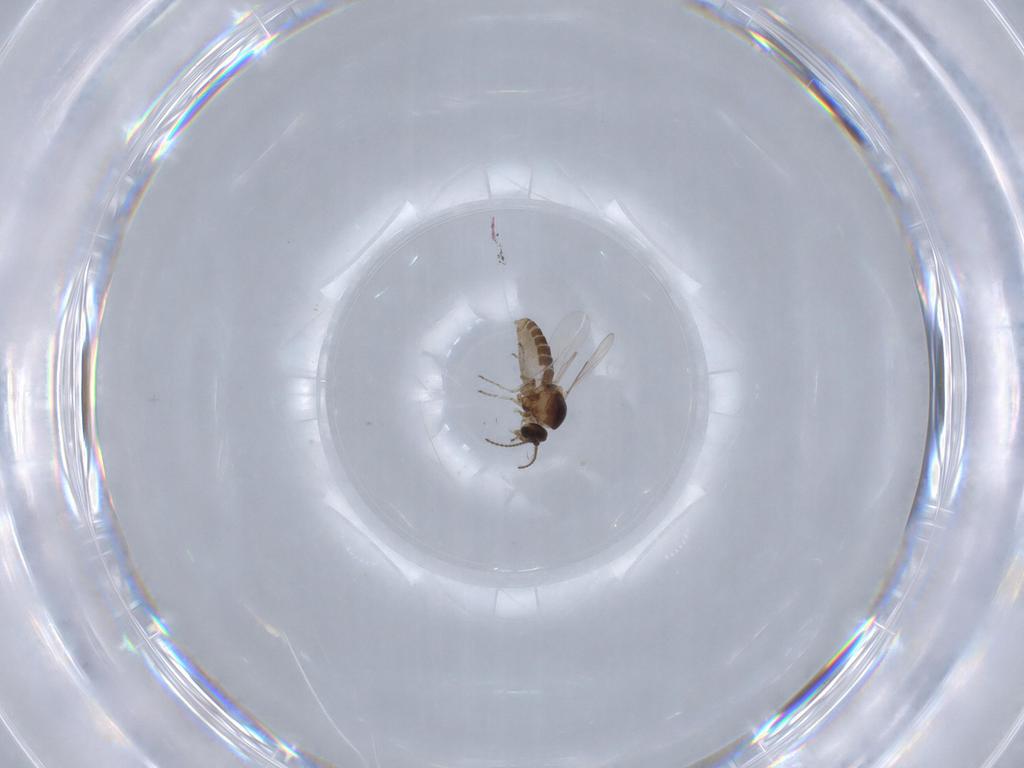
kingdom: Animalia
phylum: Arthropoda
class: Insecta
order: Diptera
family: Ceratopogonidae
